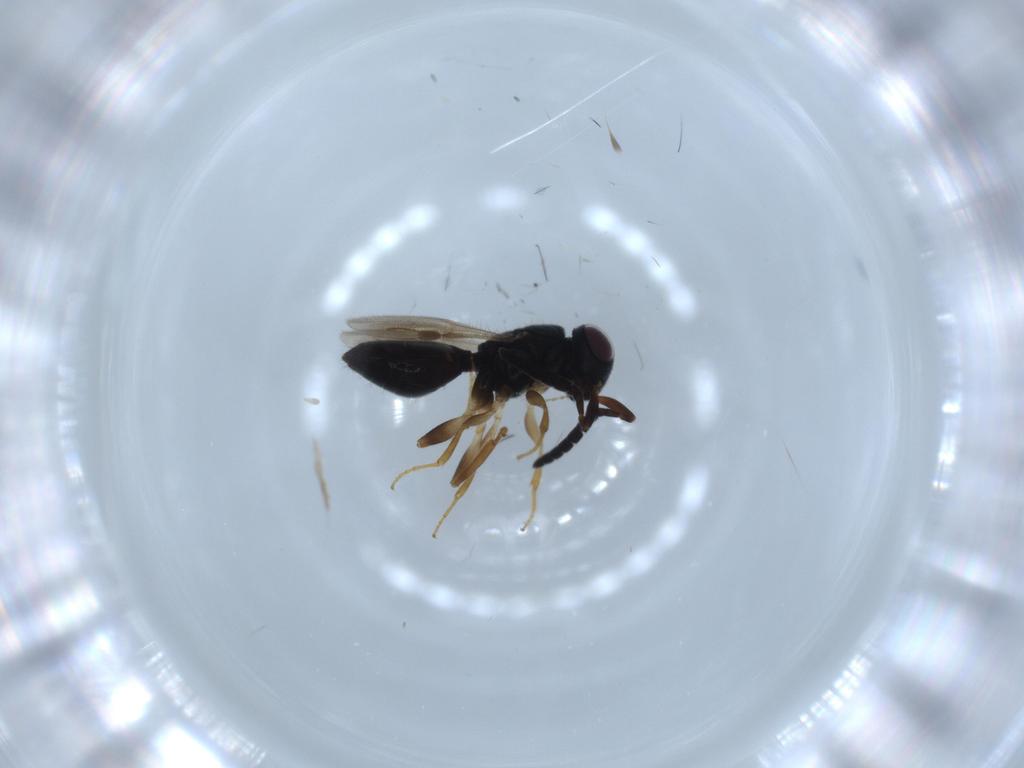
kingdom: Animalia
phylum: Arthropoda
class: Insecta
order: Hymenoptera
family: Megaspilidae
